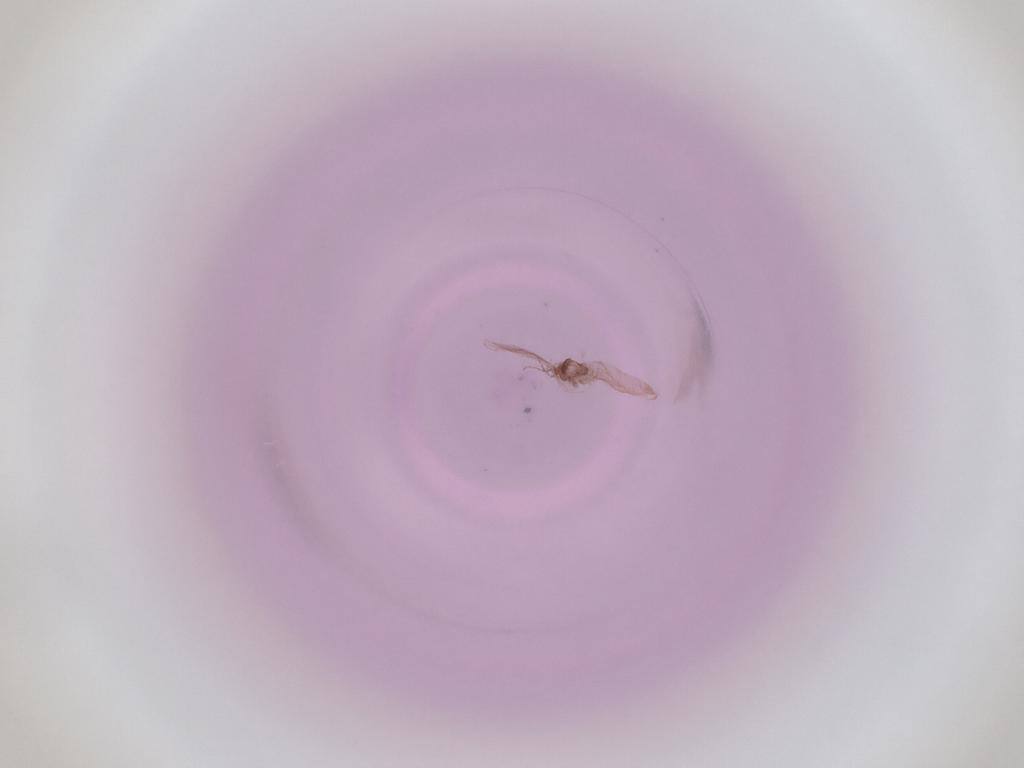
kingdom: Animalia
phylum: Arthropoda
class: Insecta
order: Diptera
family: Cecidomyiidae
